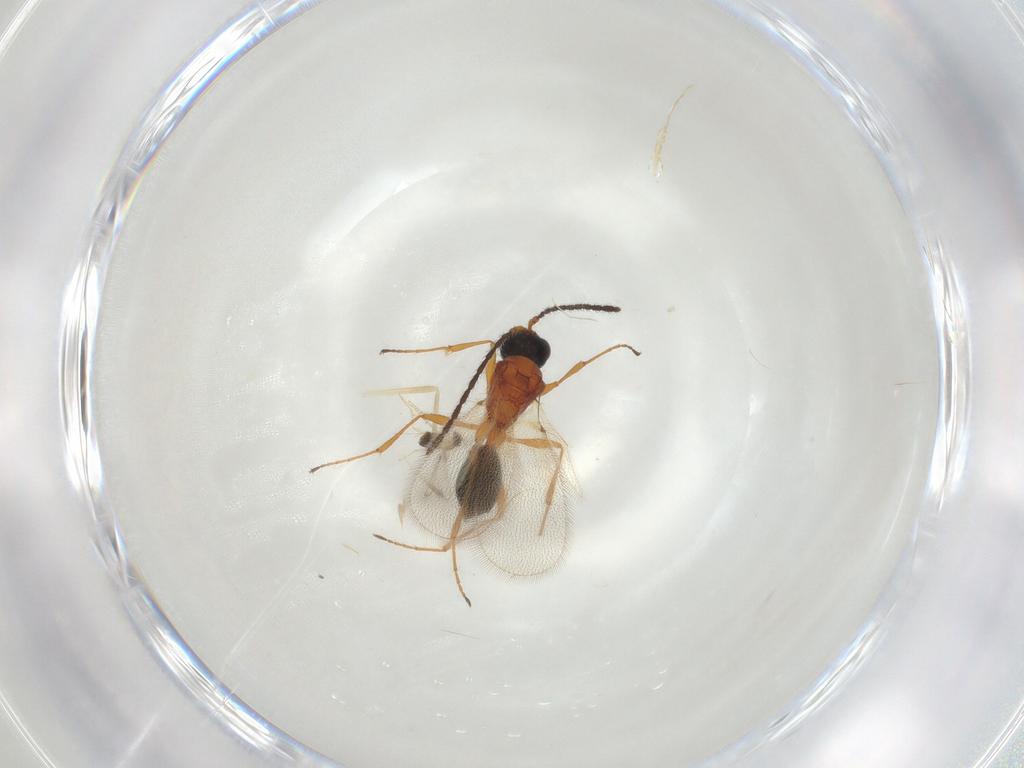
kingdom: Animalia
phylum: Arthropoda
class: Insecta
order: Hymenoptera
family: Diapriidae
